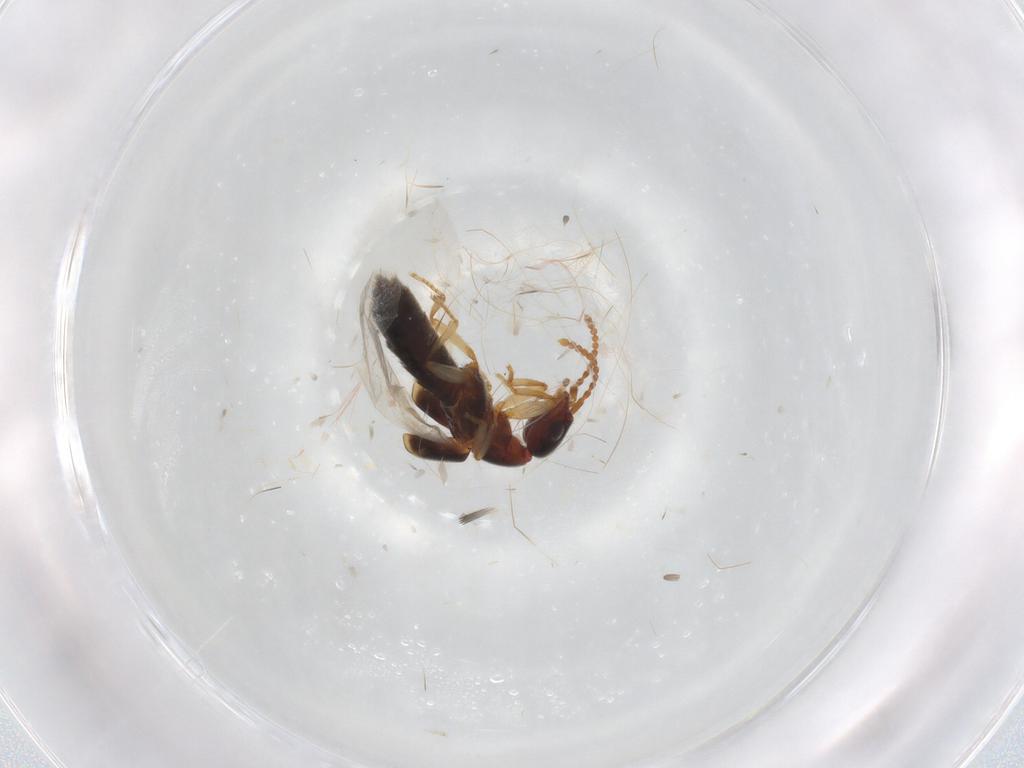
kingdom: Animalia
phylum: Arthropoda
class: Insecta
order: Coleoptera
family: Staphylinidae
